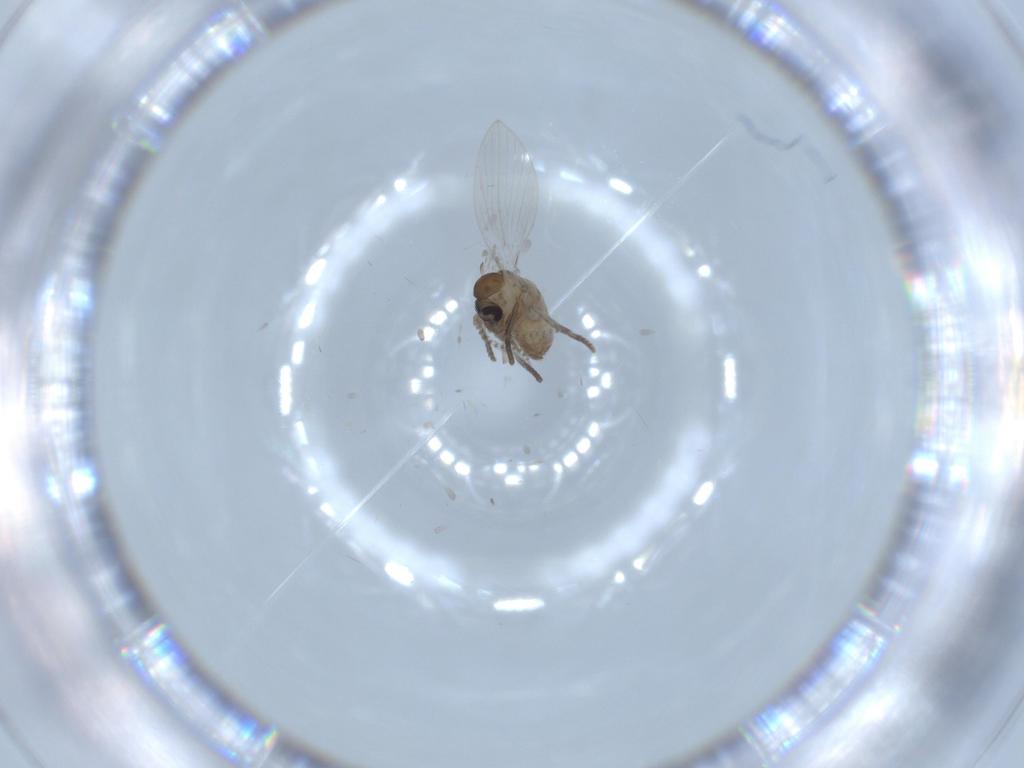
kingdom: Animalia
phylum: Arthropoda
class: Insecta
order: Diptera
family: Psychodidae
